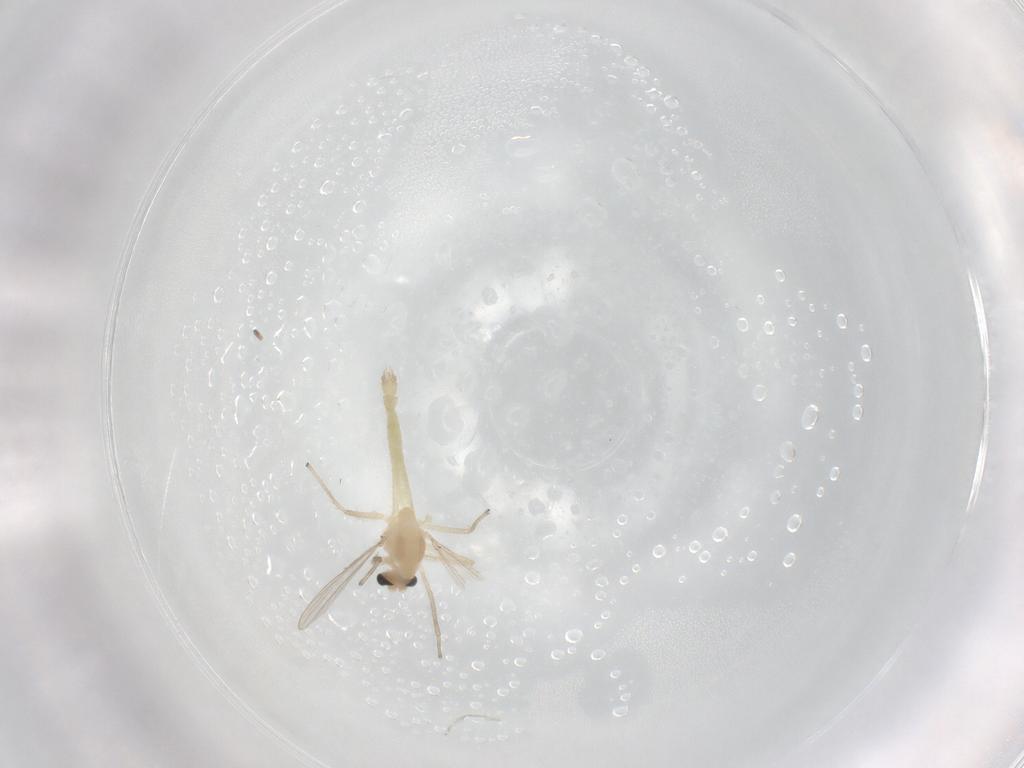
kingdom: Animalia
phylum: Arthropoda
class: Insecta
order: Diptera
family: Chironomidae
